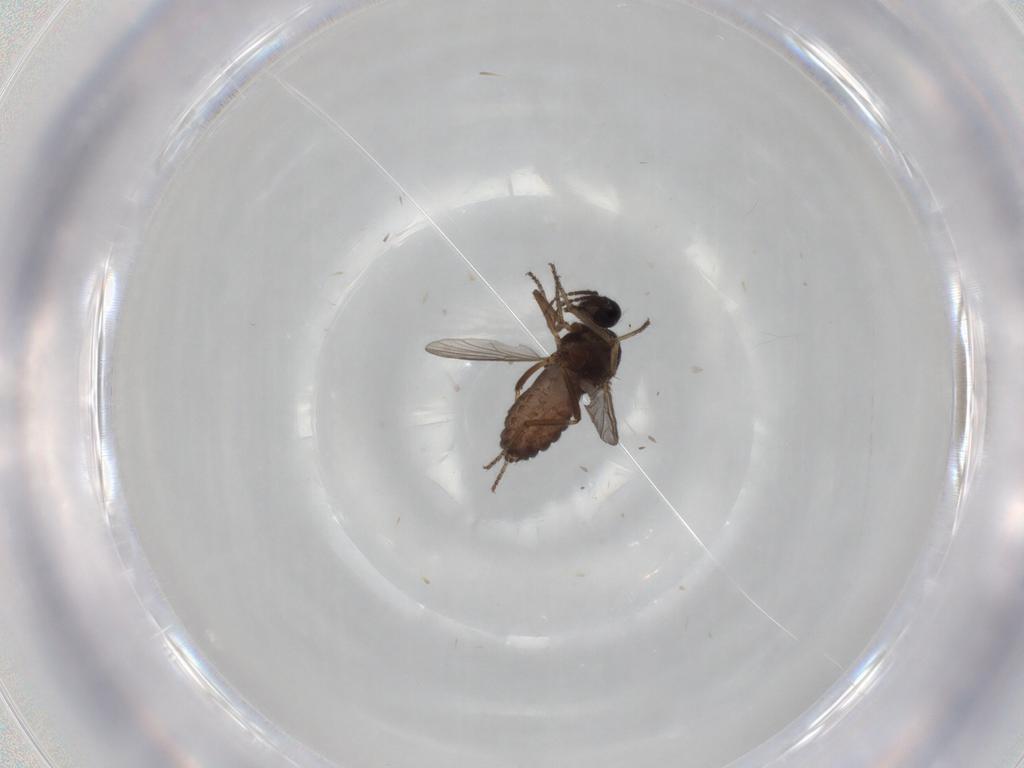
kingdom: Animalia
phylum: Arthropoda
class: Insecta
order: Diptera
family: Ceratopogonidae
